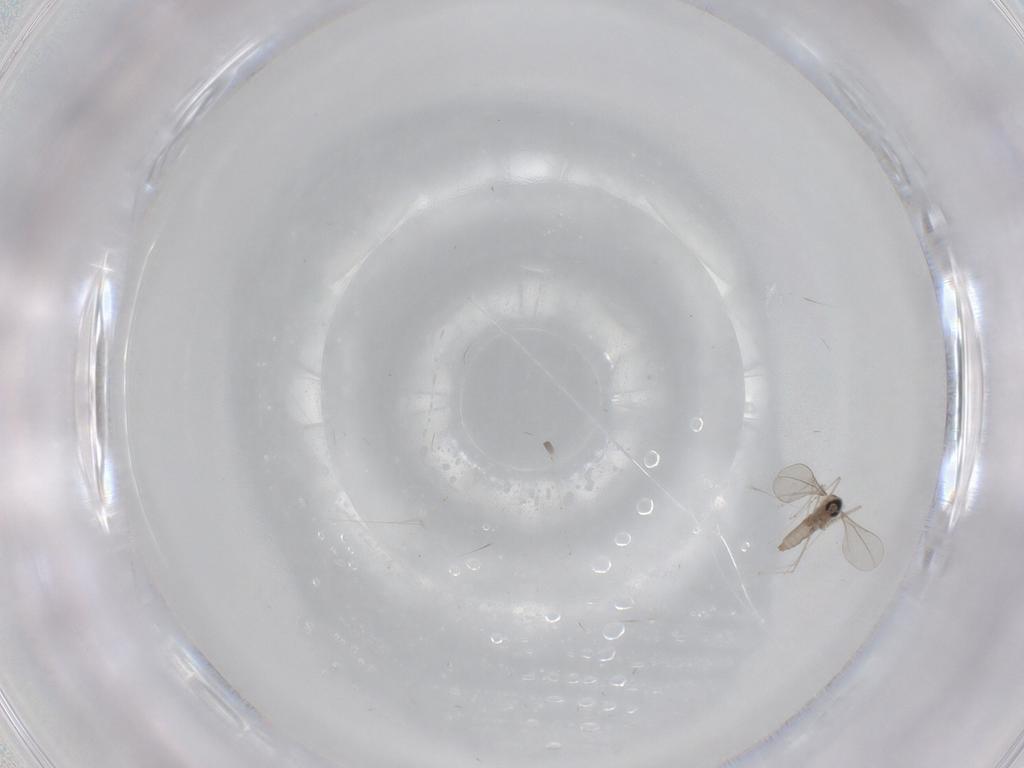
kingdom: Animalia
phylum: Arthropoda
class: Insecta
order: Diptera
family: Cecidomyiidae
